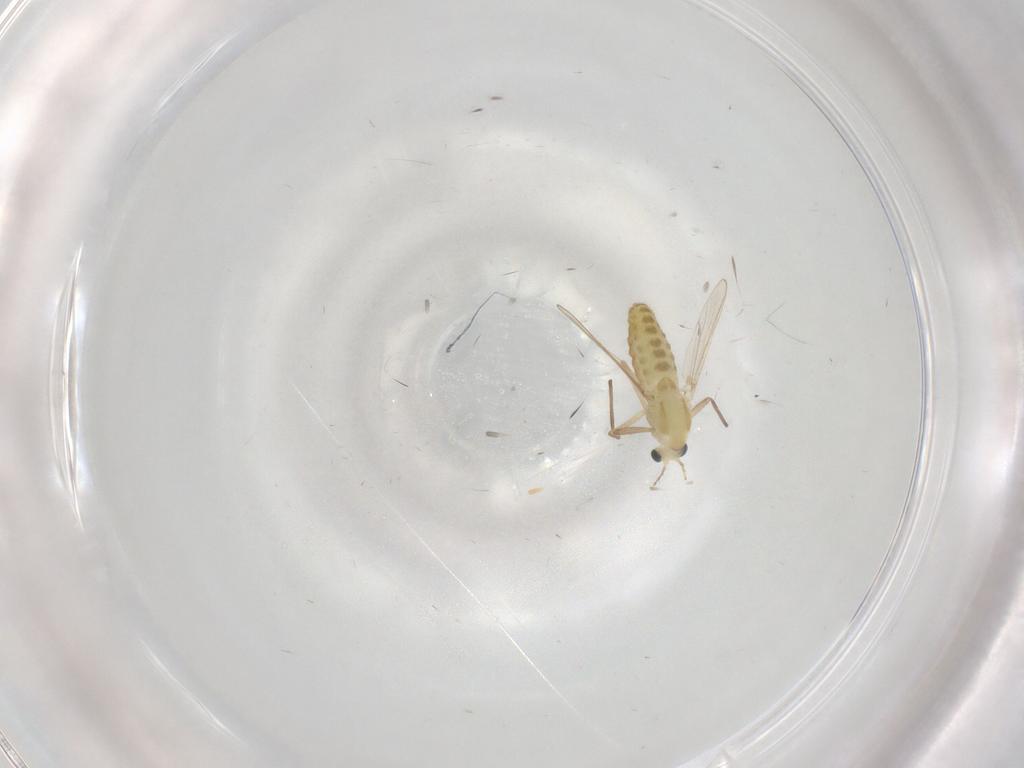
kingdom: Animalia
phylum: Arthropoda
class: Insecta
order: Diptera
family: Chironomidae
